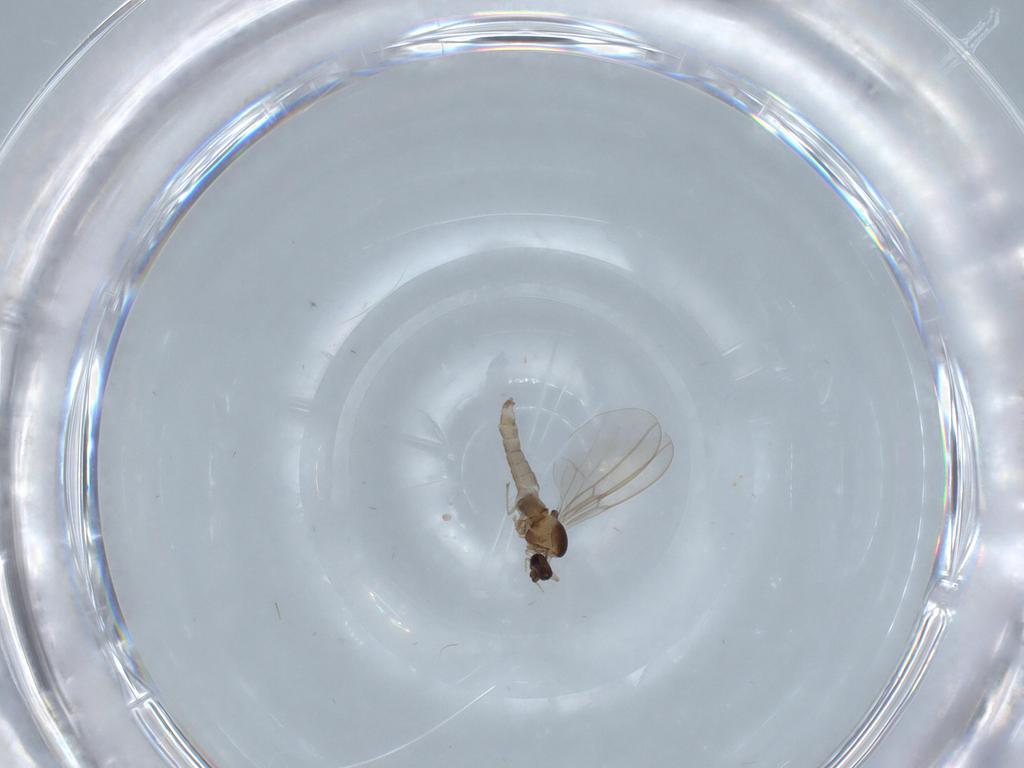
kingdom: Animalia
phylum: Arthropoda
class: Insecta
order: Diptera
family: Cecidomyiidae
